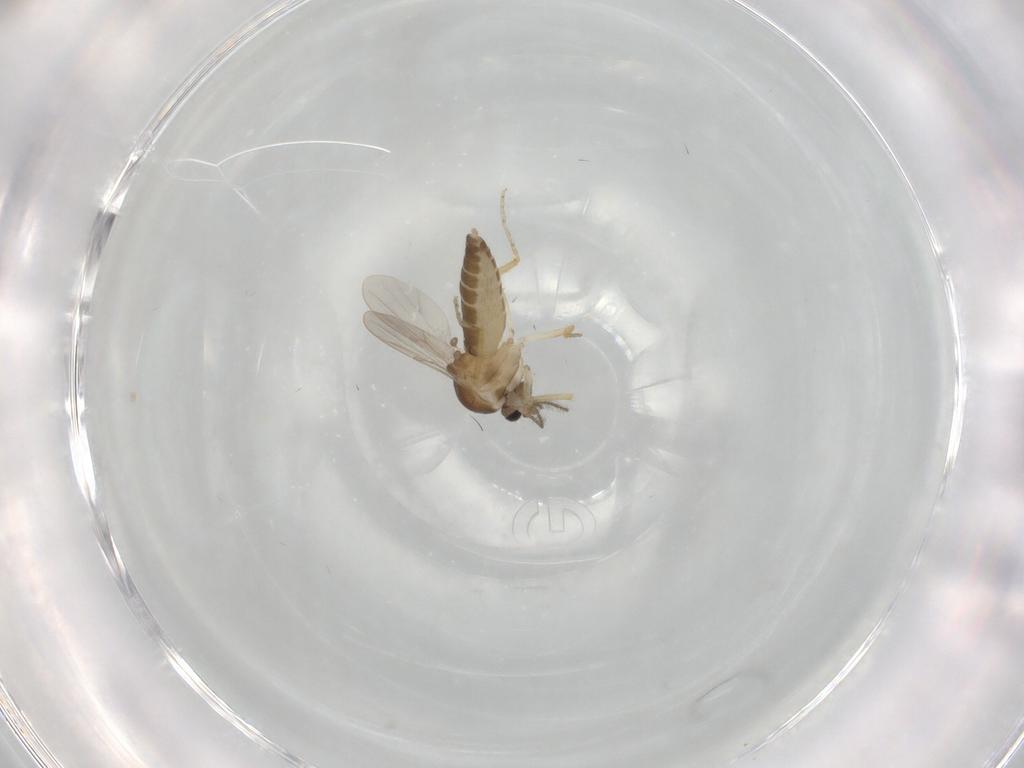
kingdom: Animalia
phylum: Arthropoda
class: Insecta
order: Diptera
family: Ceratopogonidae
